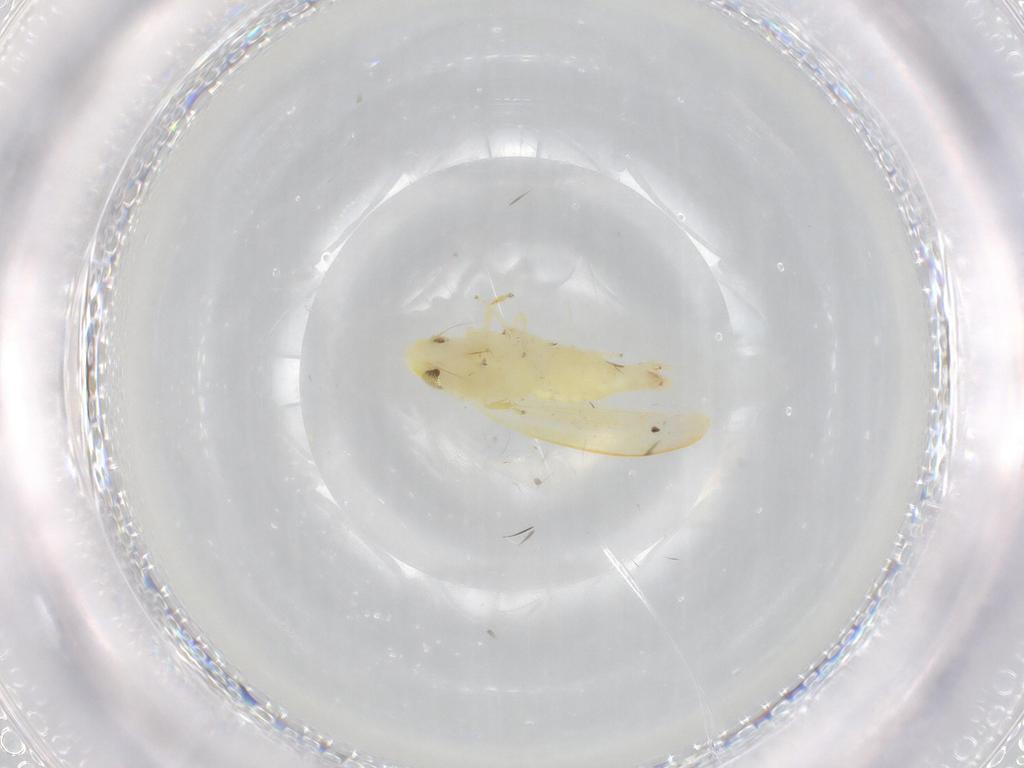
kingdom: Animalia
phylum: Arthropoda
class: Insecta
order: Hemiptera
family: Cicadellidae
